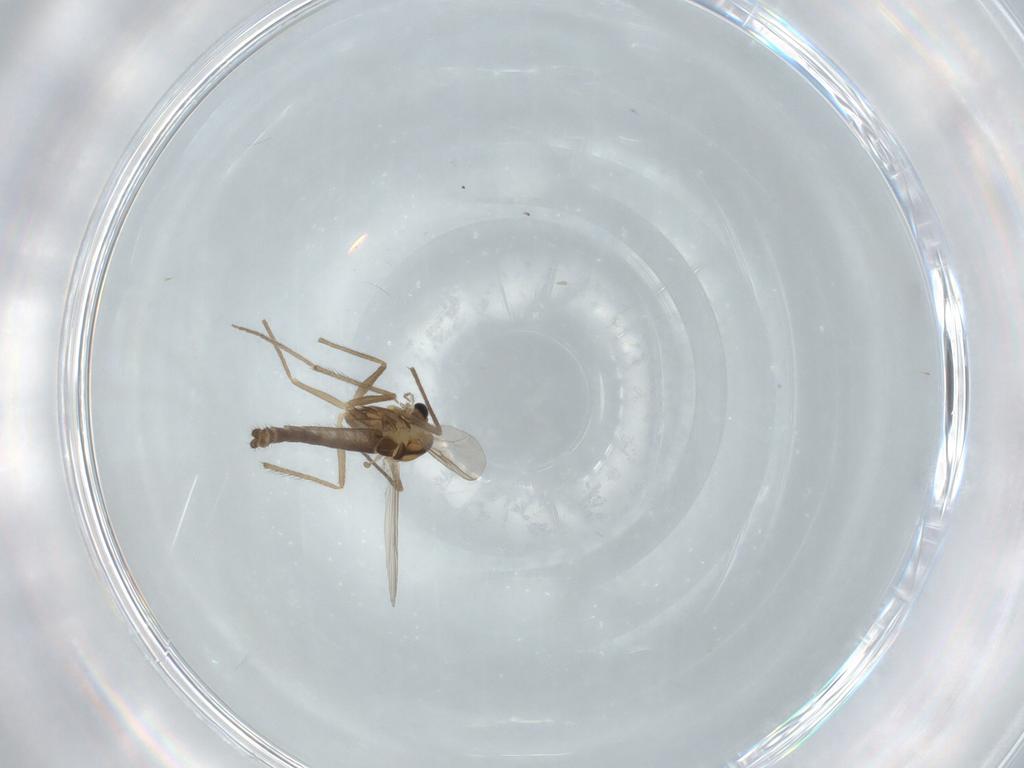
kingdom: Animalia
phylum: Arthropoda
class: Insecta
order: Diptera
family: Chironomidae
